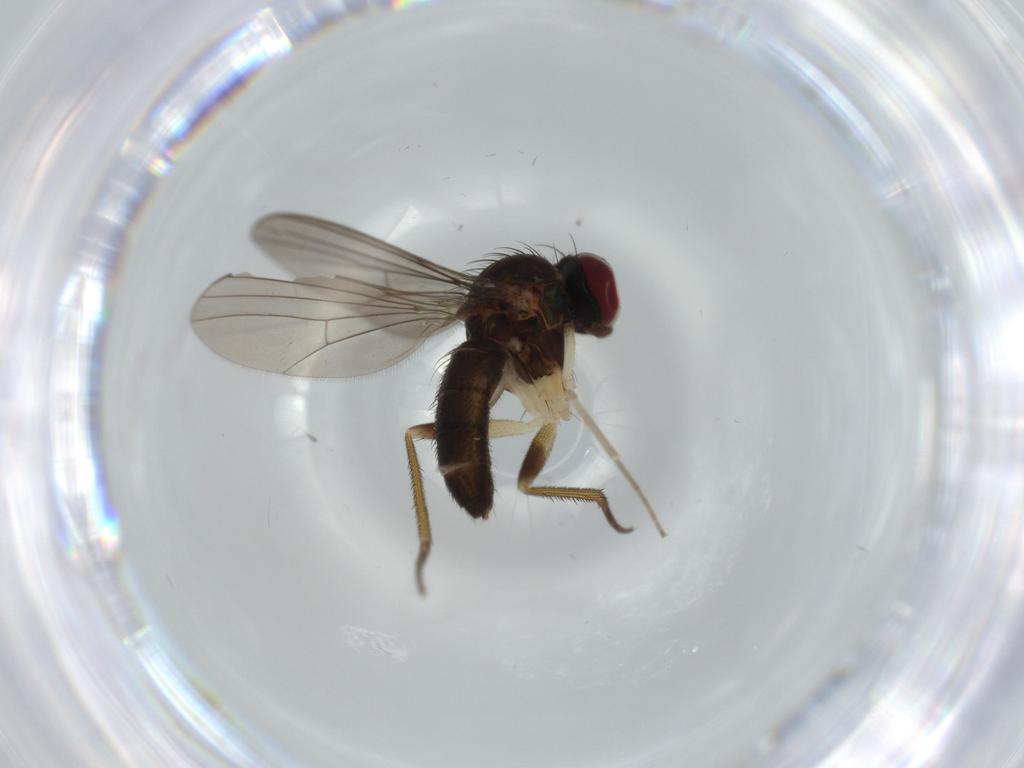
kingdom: Animalia
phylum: Arthropoda
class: Insecta
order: Diptera
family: Dolichopodidae
